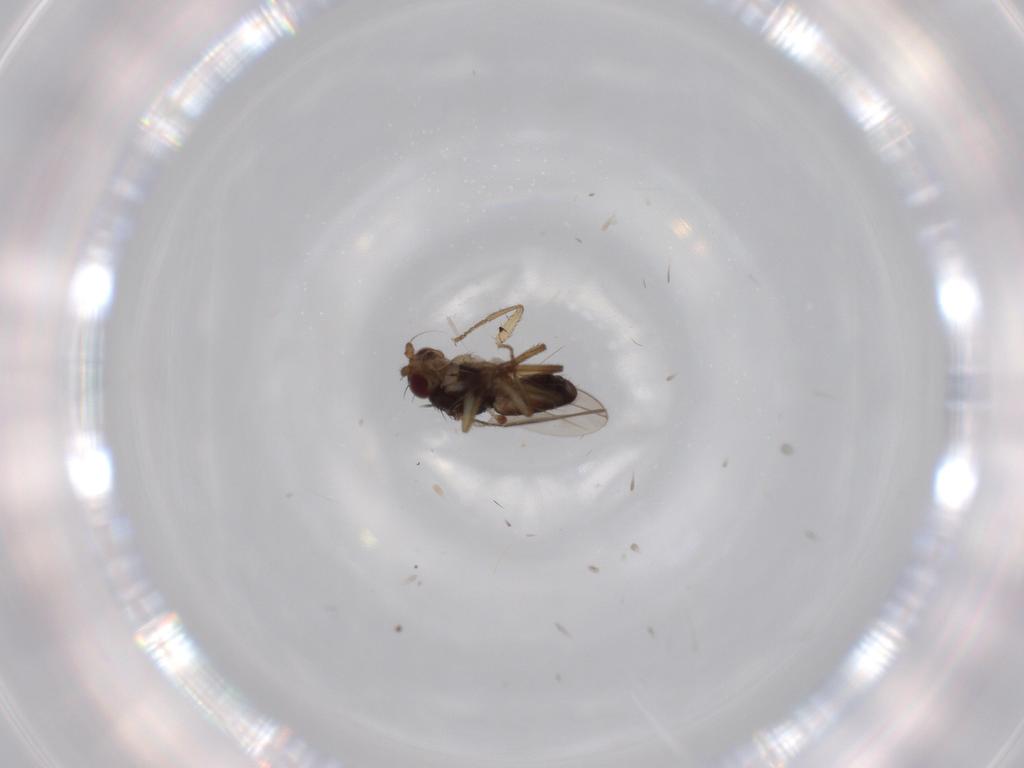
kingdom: Animalia
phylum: Arthropoda
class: Insecta
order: Diptera
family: Sphaeroceridae
